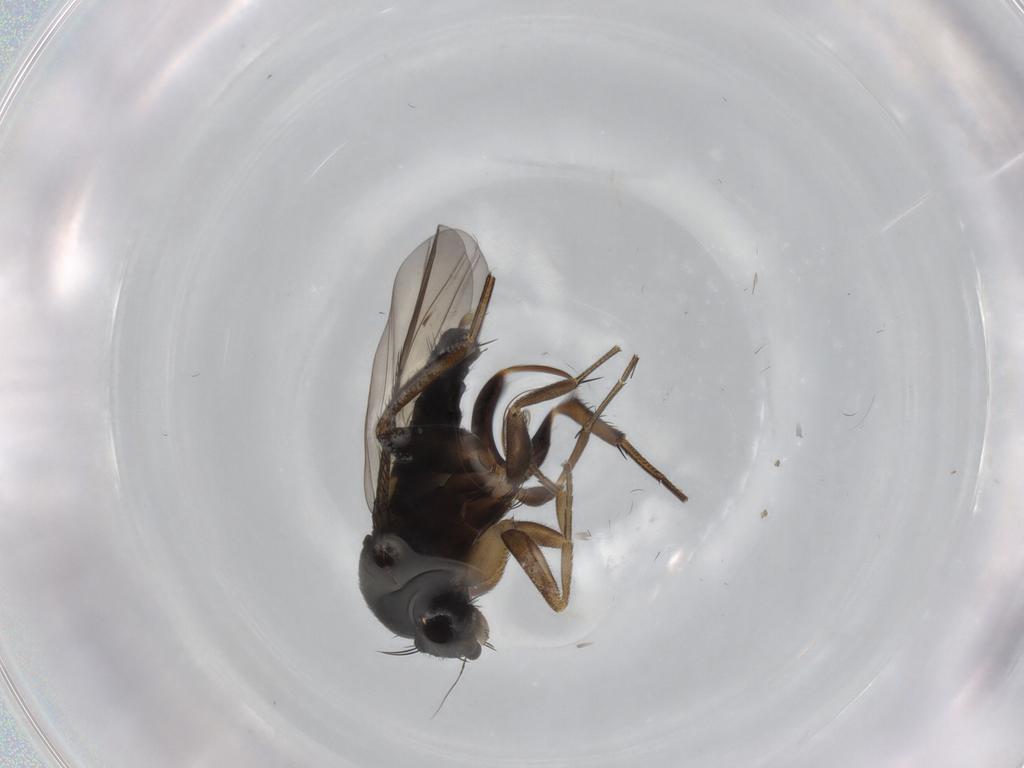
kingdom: Animalia
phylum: Arthropoda
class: Insecta
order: Diptera
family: Phoridae
